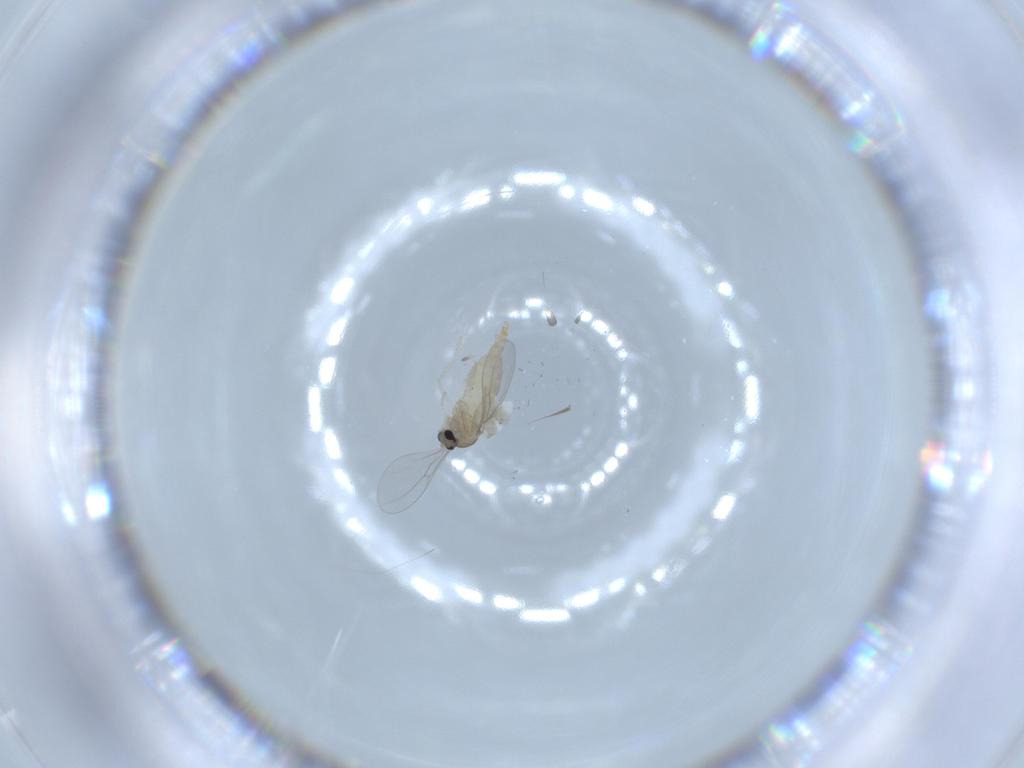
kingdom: Animalia
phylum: Arthropoda
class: Insecta
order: Diptera
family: Cecidomyiidae
